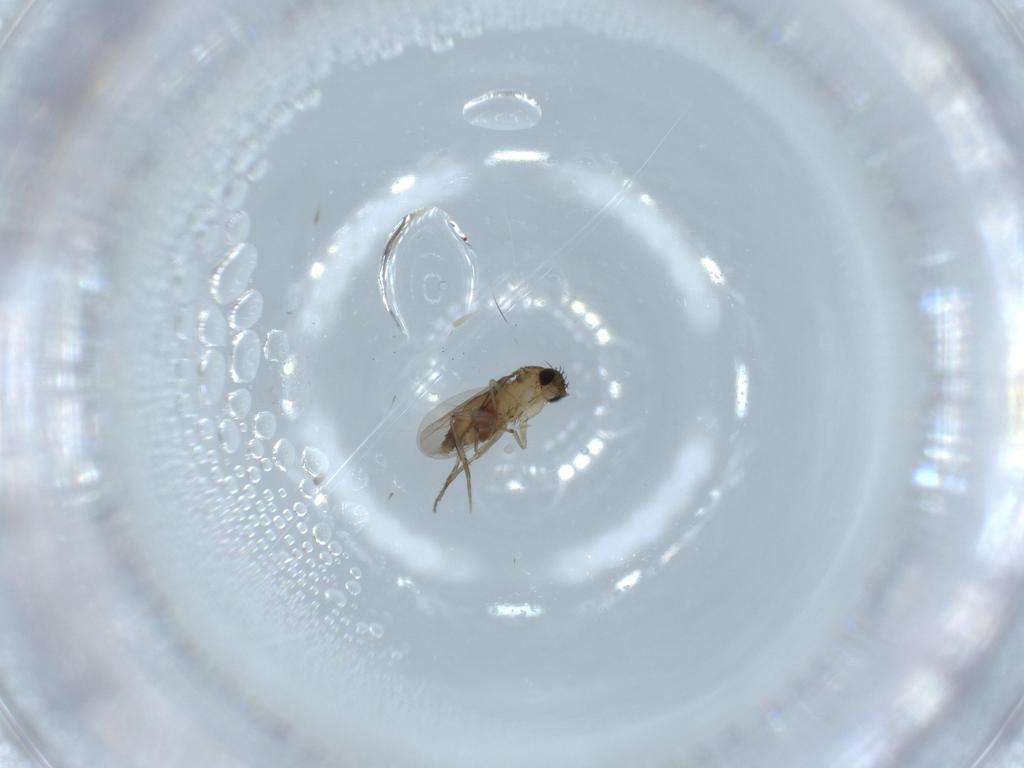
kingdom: Animalia
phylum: Arthropoda
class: Insecta
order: Diptera
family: Phoridae
